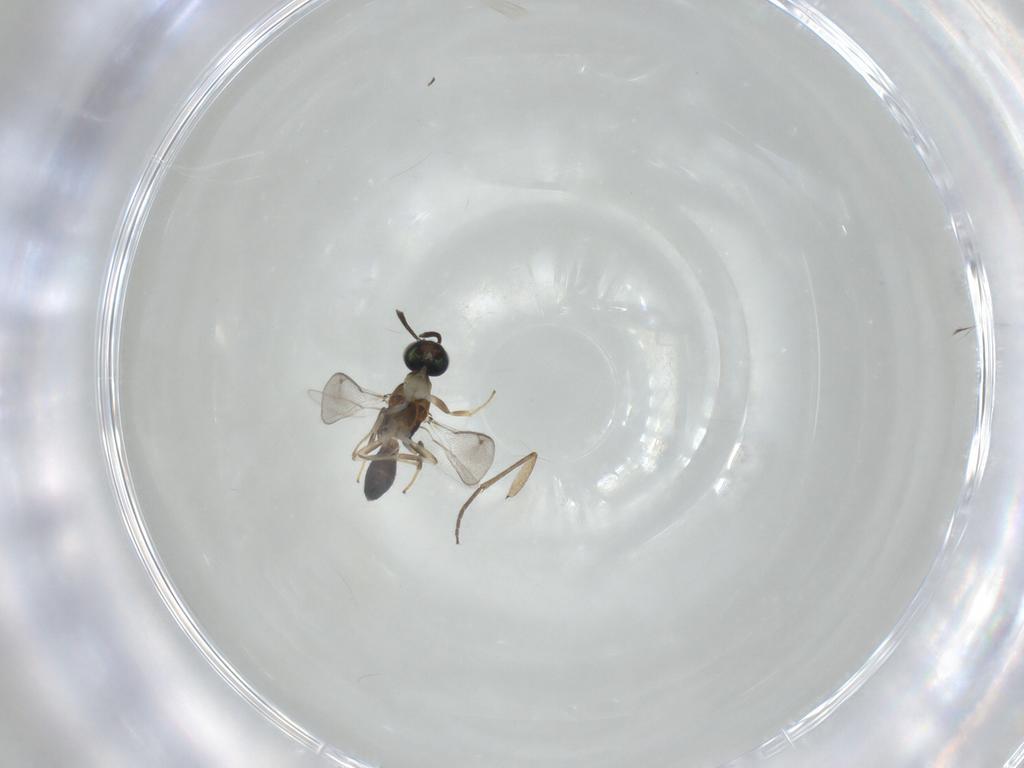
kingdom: Animalia
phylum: Arthropoda
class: Insecta
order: Hymenoptera
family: Eupelmidae
